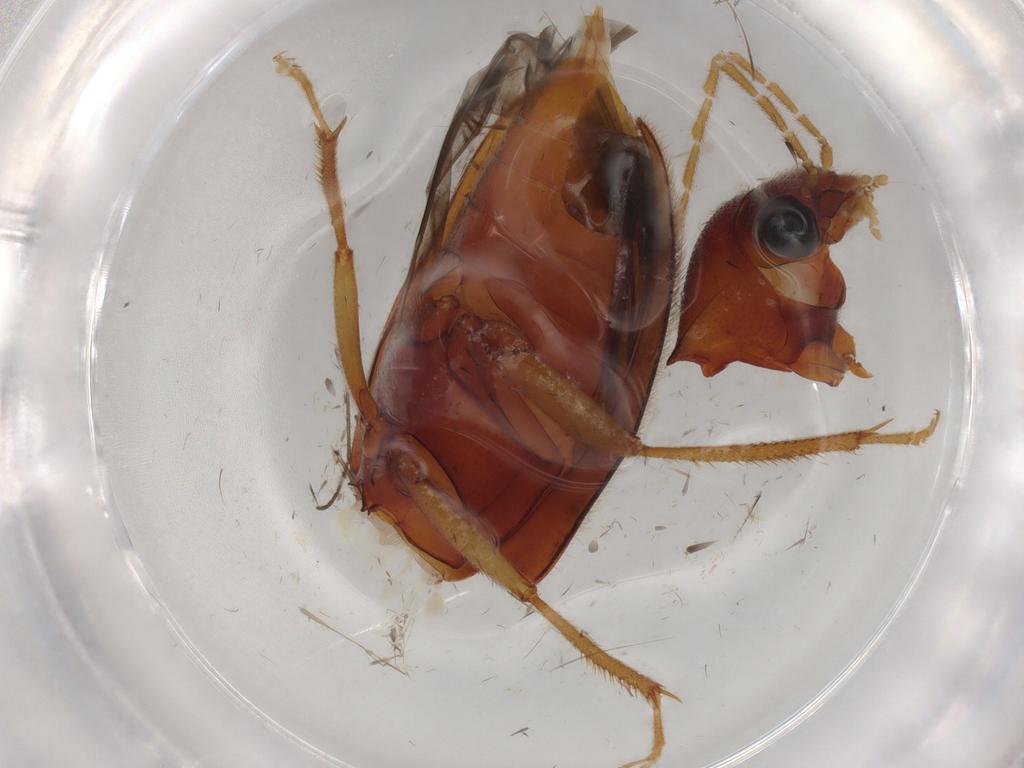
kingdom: Animalia
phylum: Arthropoda
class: Insecta
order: Coleoptera
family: Ptilodactylidae
